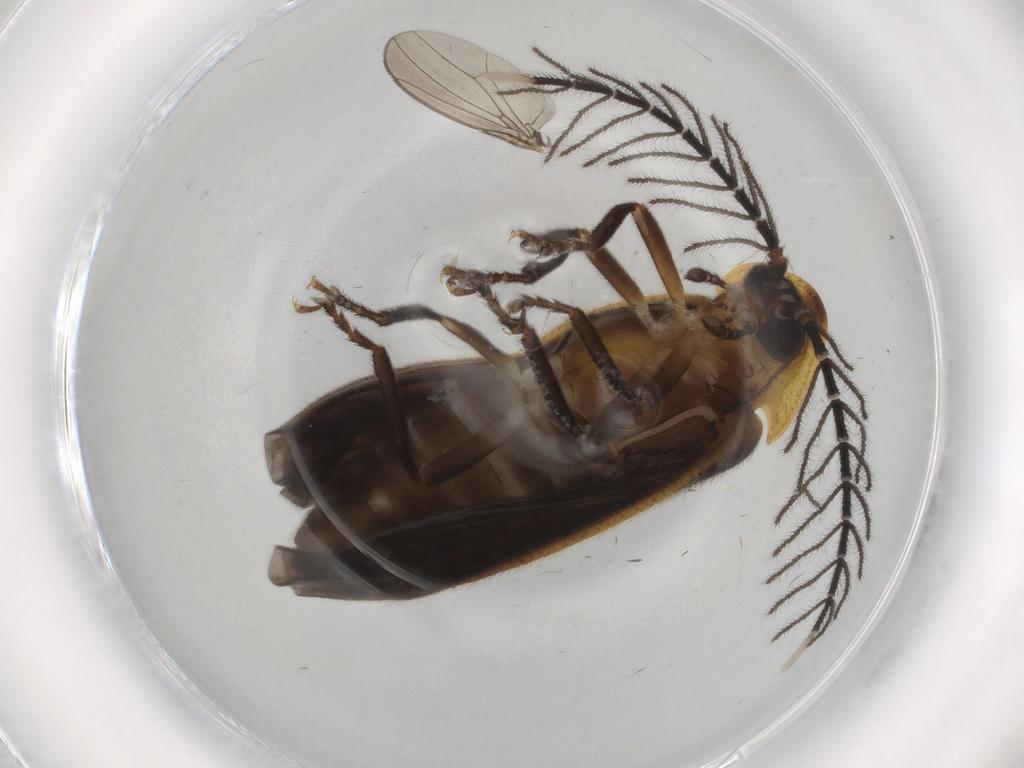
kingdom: Animalia
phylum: Arthropoda
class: Insecta
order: Coleoptera
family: Lampyridae
